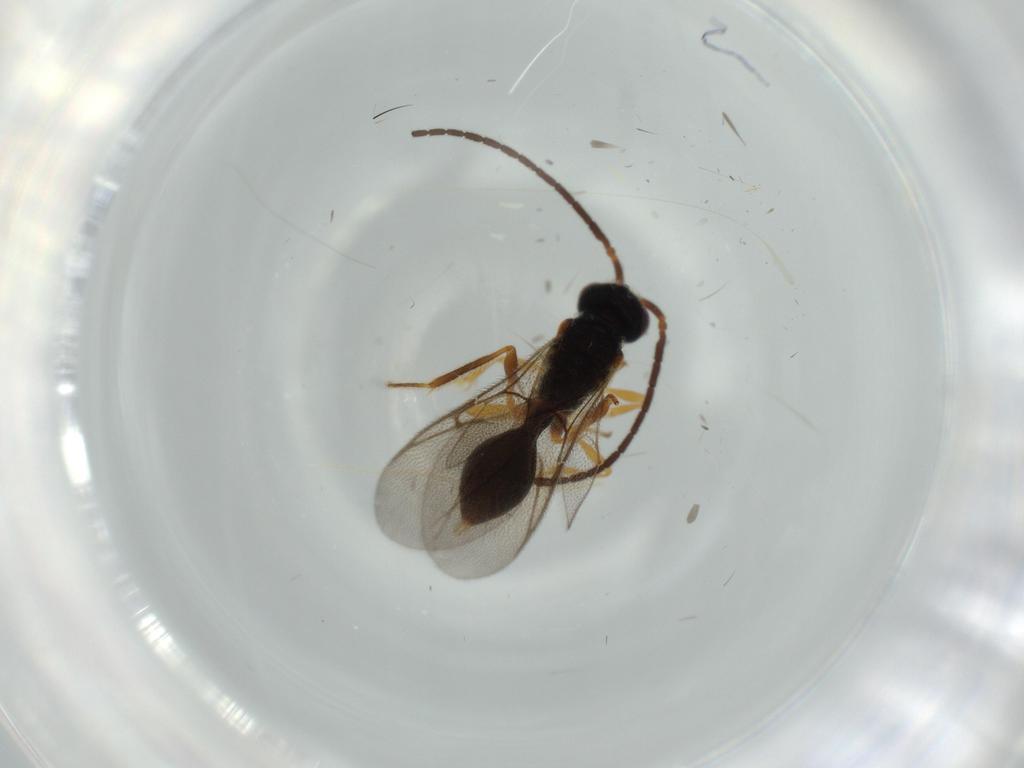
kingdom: Animalia
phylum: Arthropoda
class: Insecta
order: Hymenoptera
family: Diapriidae
